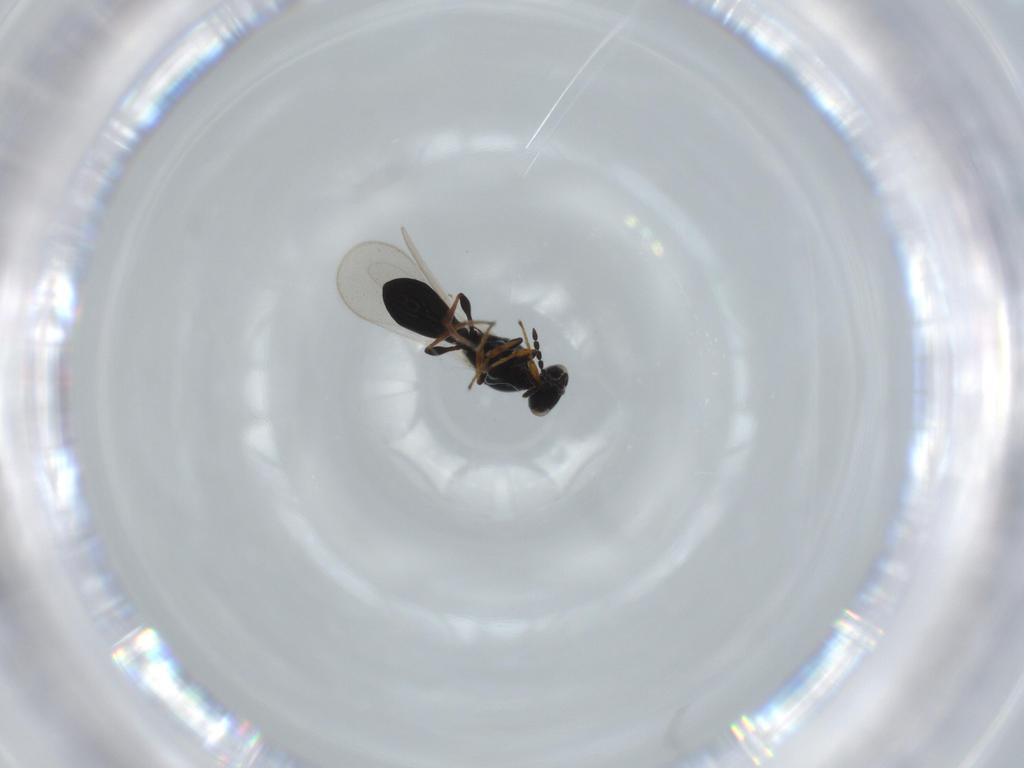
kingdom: Animalia
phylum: Arthropoda
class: Insecta
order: Hymenoptera
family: Platygastridae
